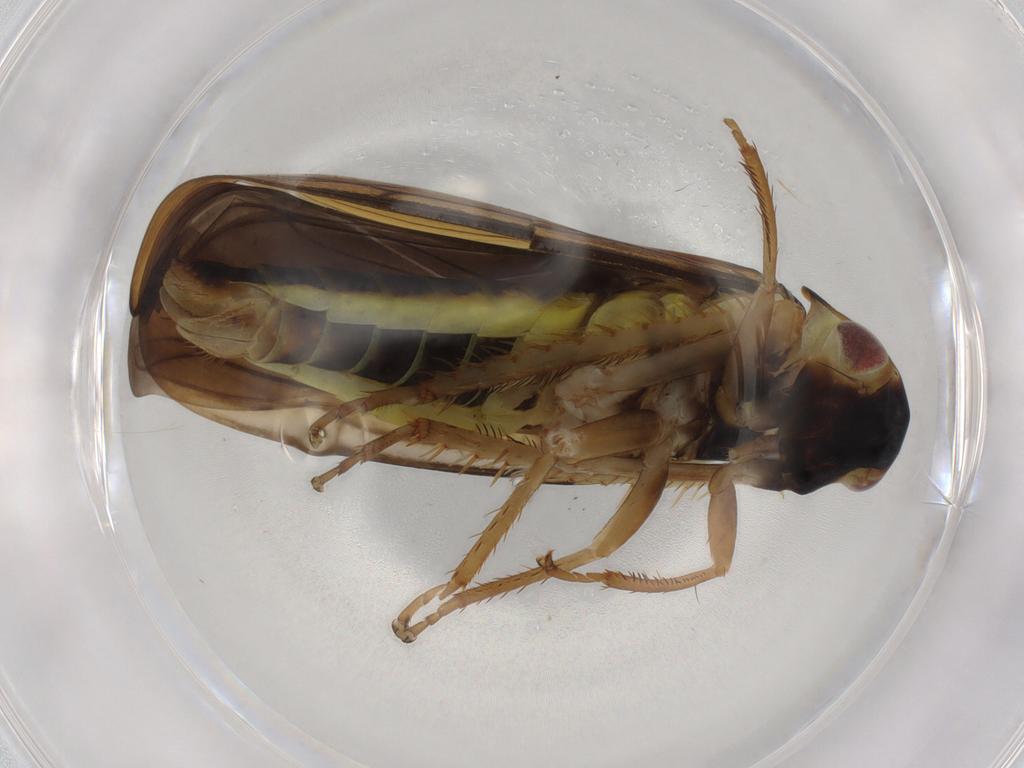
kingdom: Animalia
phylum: Arthropoda
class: Insecta
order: Hemiptera
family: Cicadellidae
